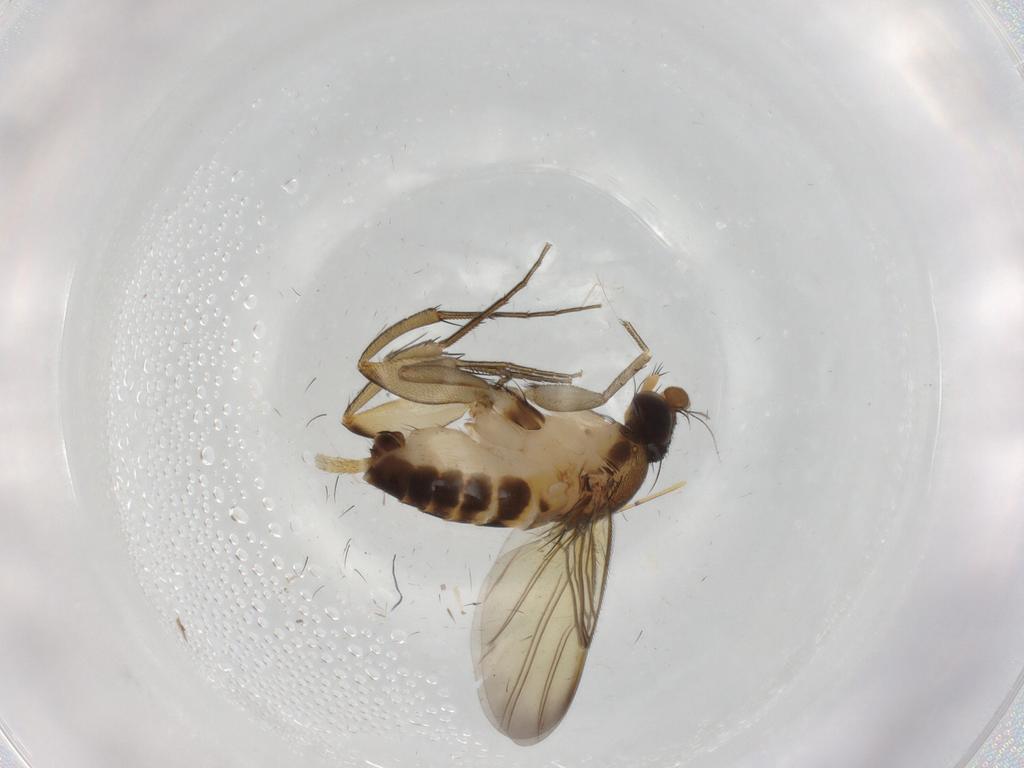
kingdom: Animalia
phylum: Arthropoda
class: Insecta
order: Diptera
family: Phoridae
